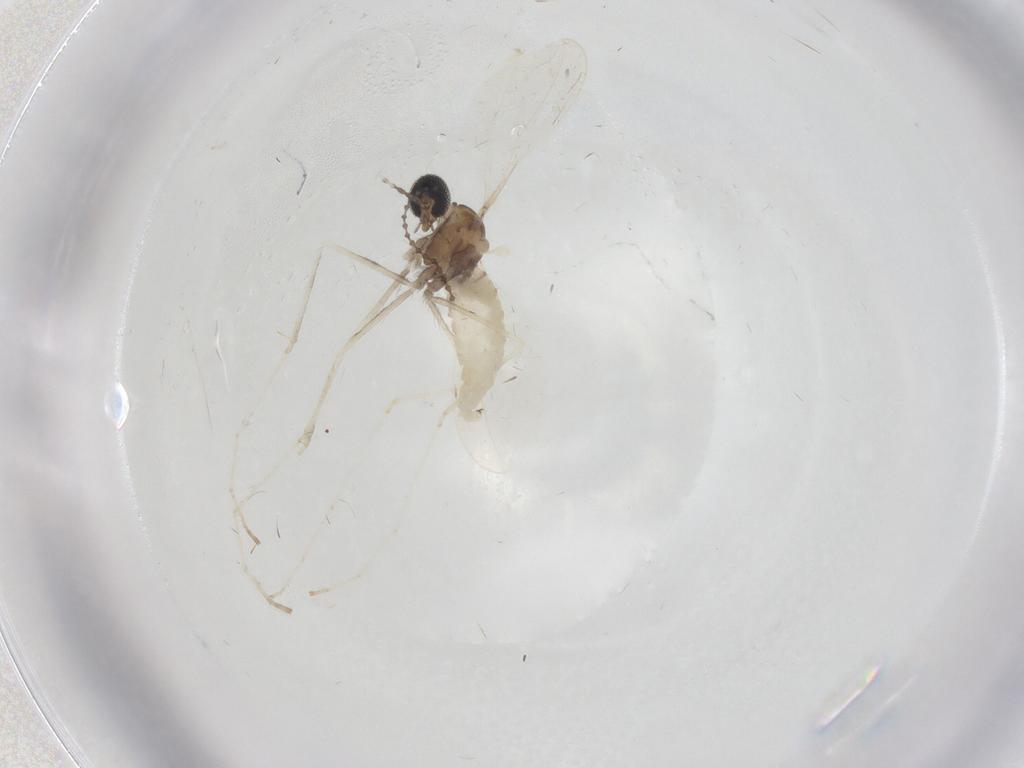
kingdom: Animalia
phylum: Arthropoda
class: Insecta
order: Diptera
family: Cecidomyiidae
